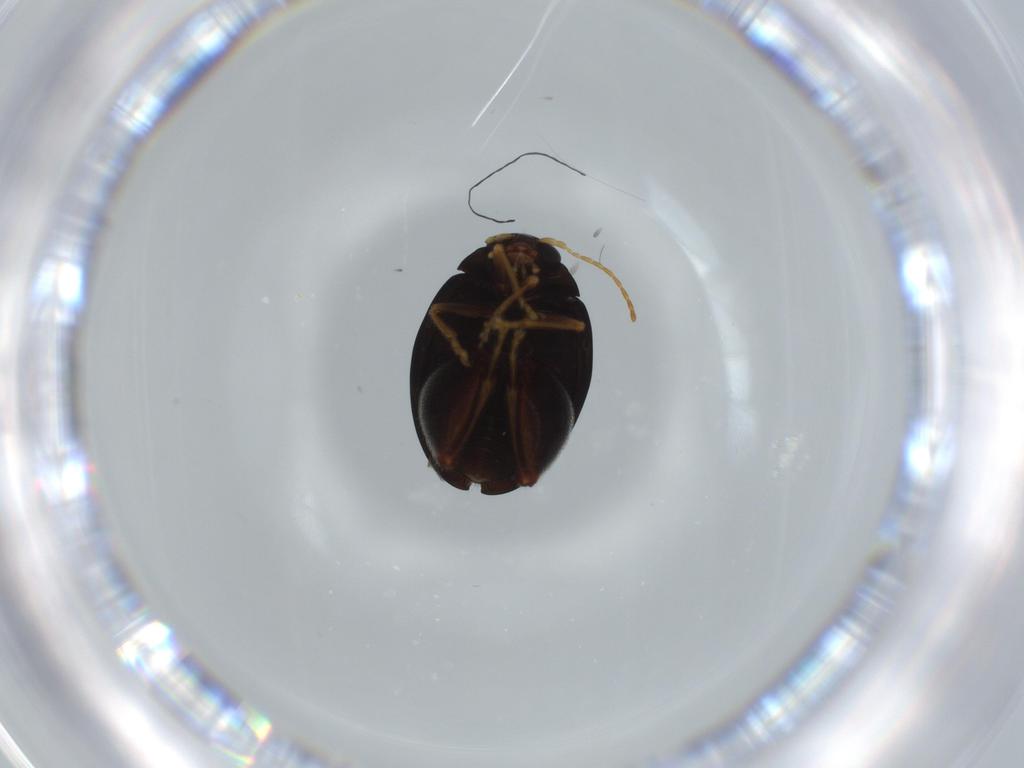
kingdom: Animalia
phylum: Arthropoda
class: Insecta
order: Coleoptera
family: Chrysomelidae
